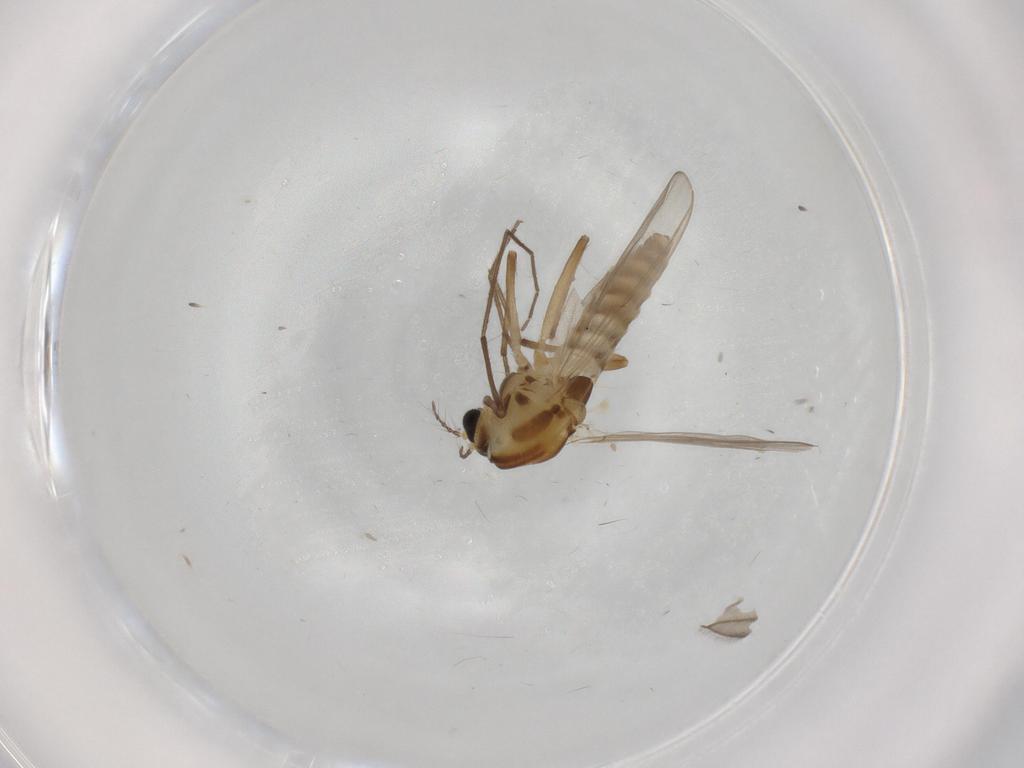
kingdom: Animalia
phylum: Arthropoda
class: Insecta
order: Diptera
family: Chironomidae
